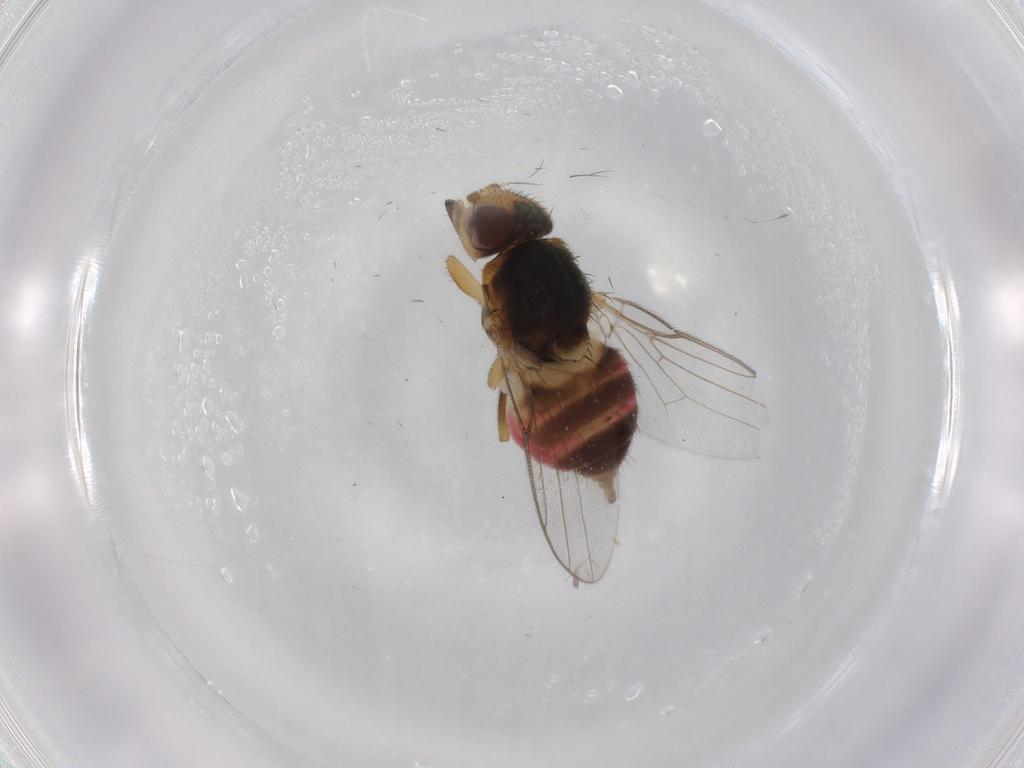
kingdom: Animalia
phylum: Arthropoda
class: Insecta
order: Diptera
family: Chloropidae
